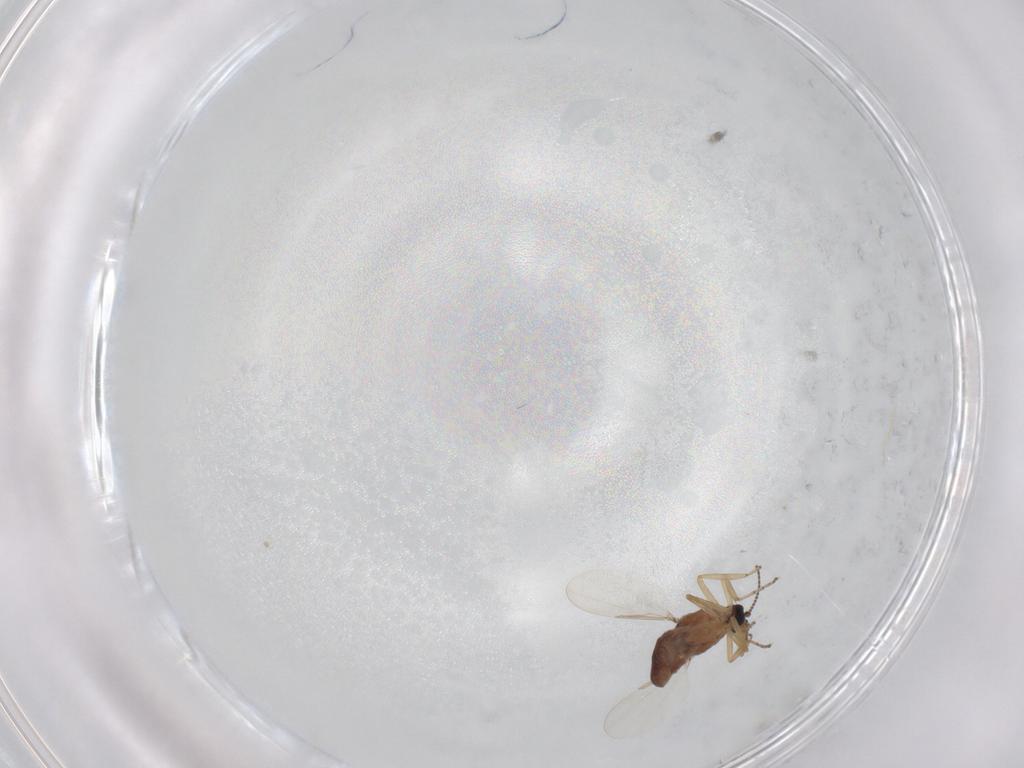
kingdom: Animalia
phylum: Arthropoda
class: Insecta
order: Diptera
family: Ceratopogonidae
